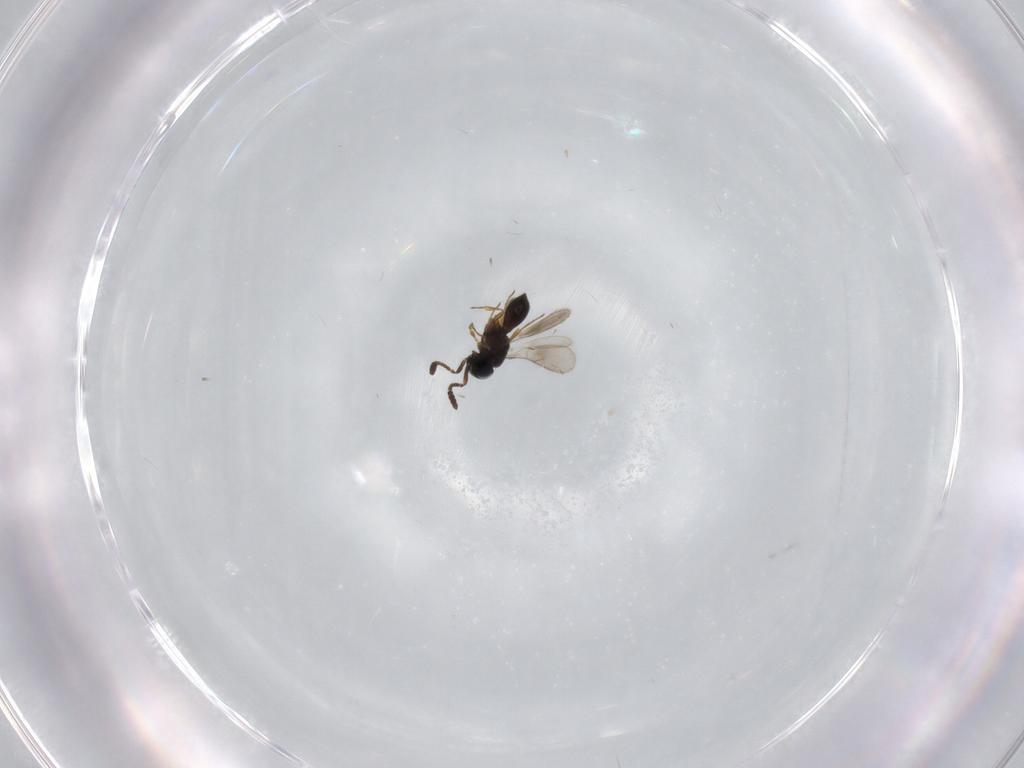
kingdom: Animalia
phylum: Arthropoda
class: Insecta
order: Hymenoptera
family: Scelionidae
